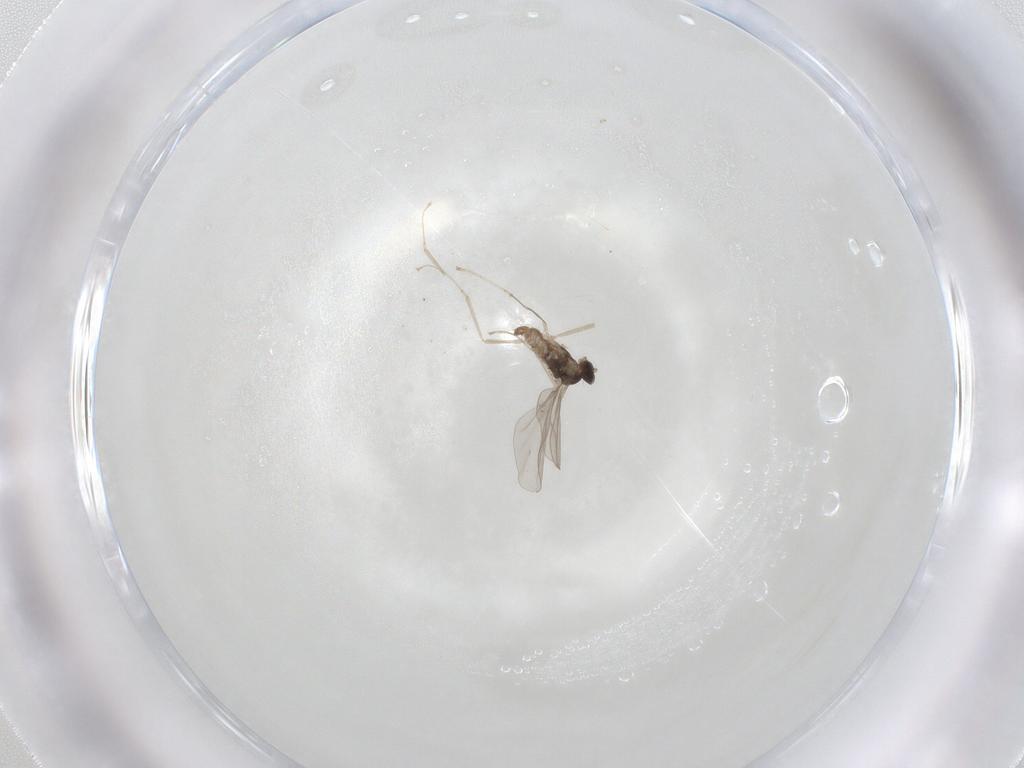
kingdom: Animalia
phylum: Arthropoda
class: Insecta
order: Diptera
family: Cecidomyiidae
